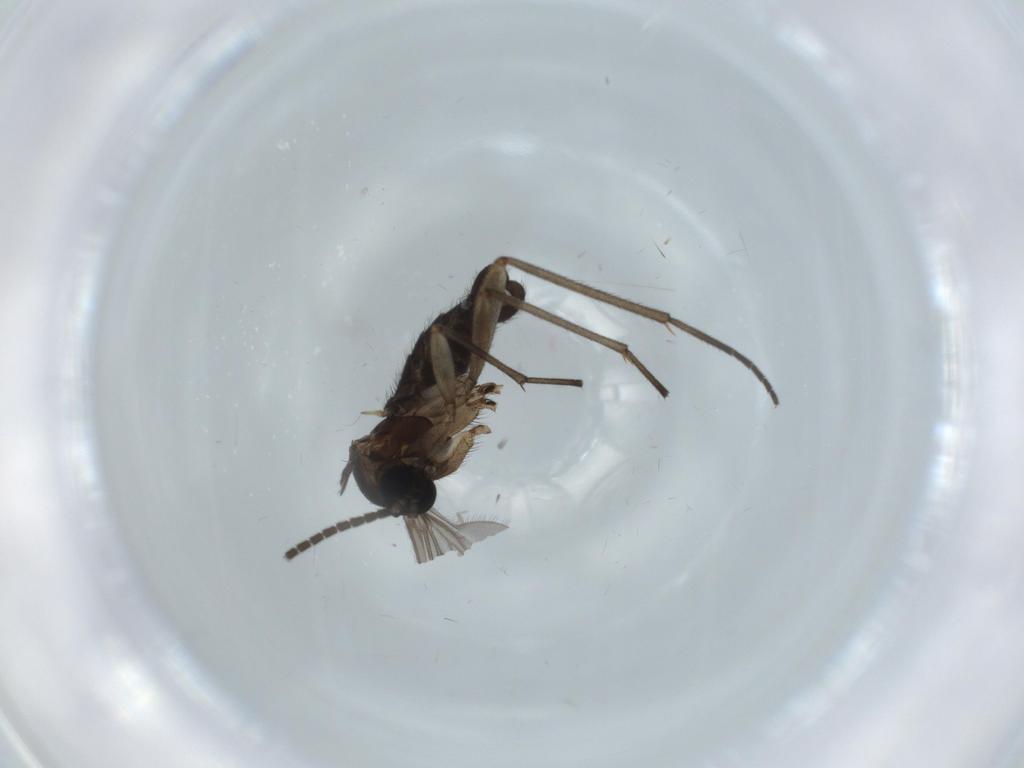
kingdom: Animalia
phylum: Arthropoda
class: Insecta
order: Diptera
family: Sciaridae
